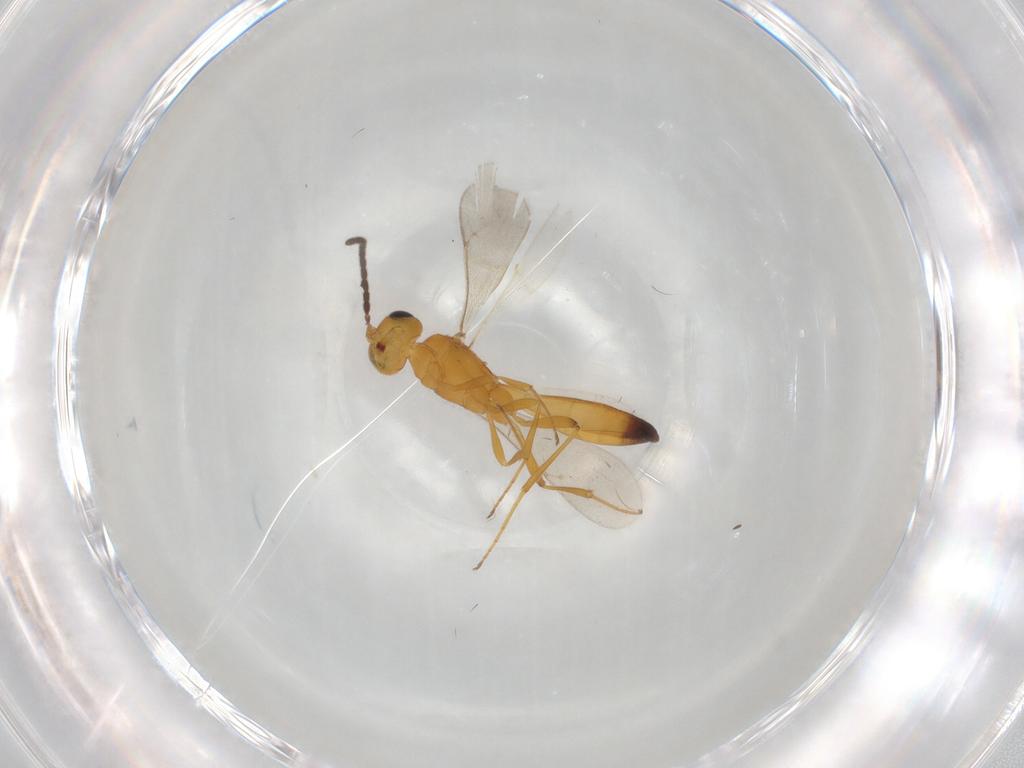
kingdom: Animalia
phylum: Arthropoda
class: Insecta
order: Hymenoptera
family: Scelionidae
